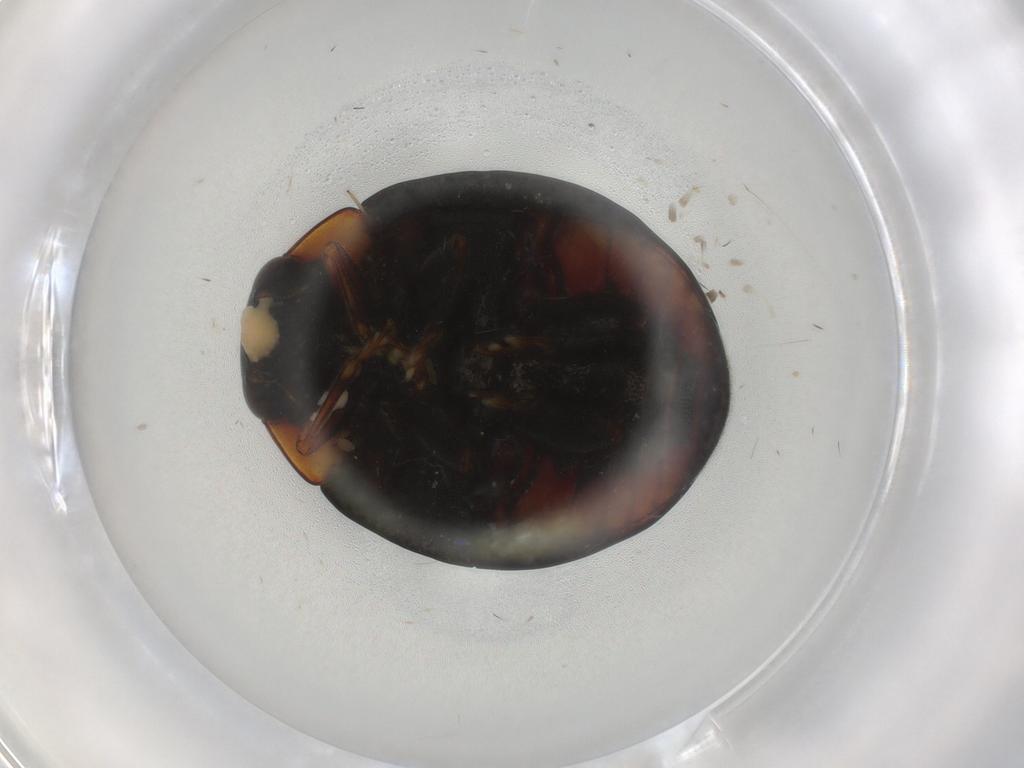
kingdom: Animalia
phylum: Arthropoda
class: Insecta
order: Coleoptera
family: Coccinellidae
